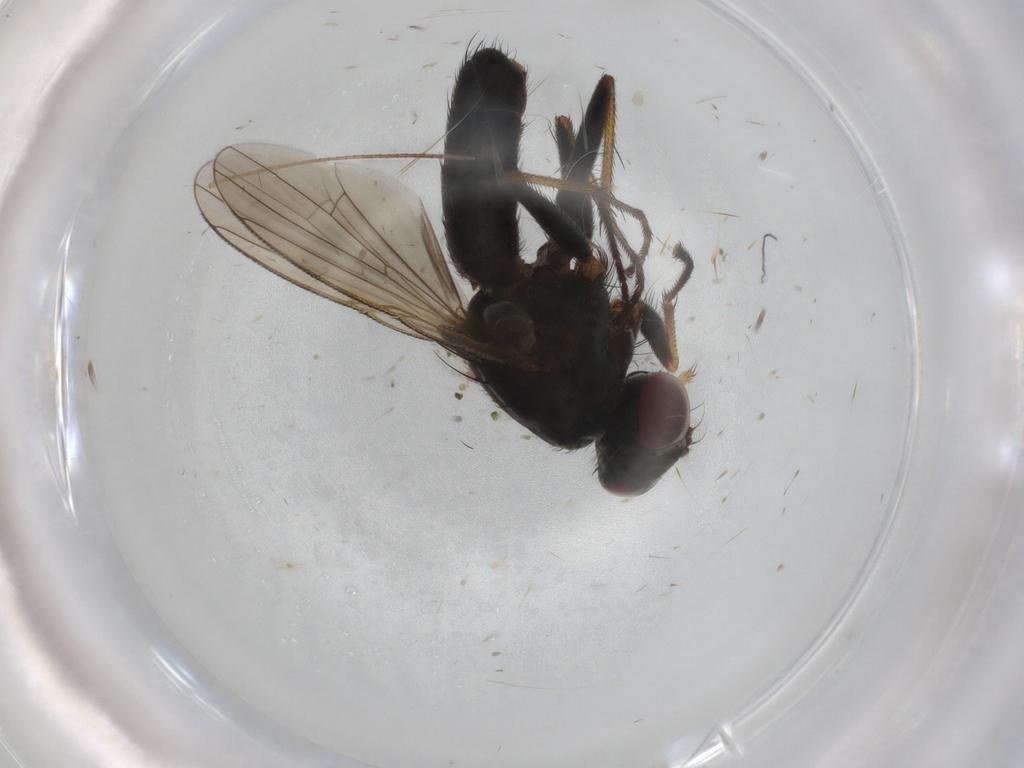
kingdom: Animalia
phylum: Arthropoda
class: Insecta
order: Diptera
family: Muscidae
